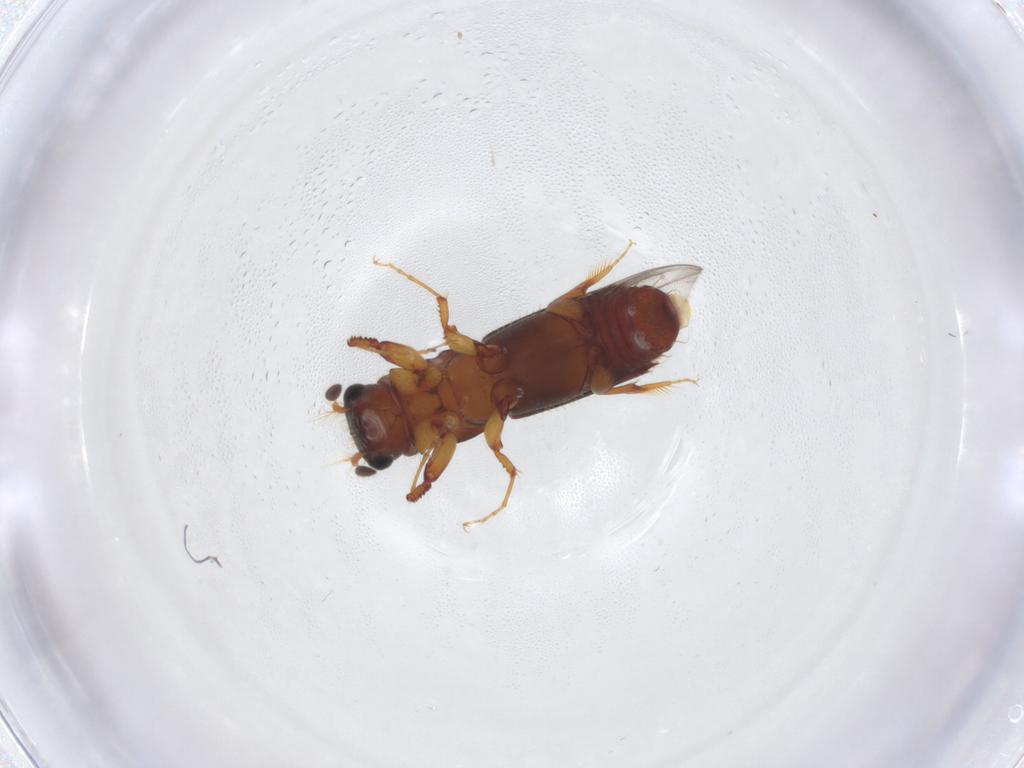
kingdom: Animalia
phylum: Arthropoda
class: Insecta
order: Coleoptera
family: Curculionidae
